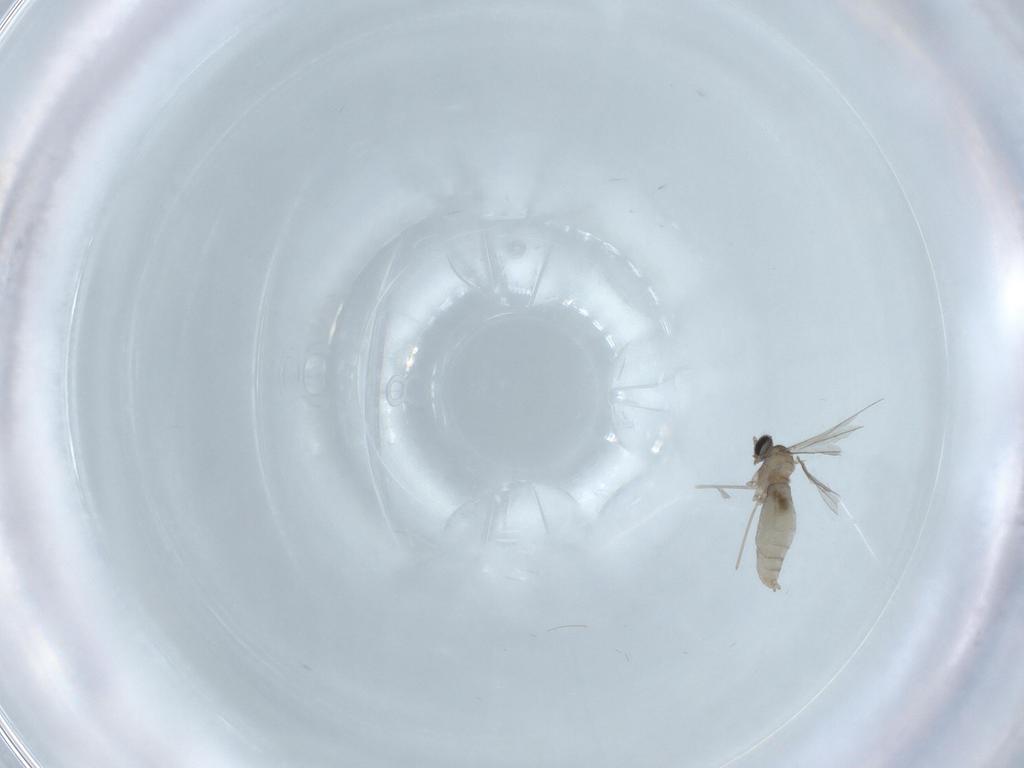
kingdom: Animalia
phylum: Arthropoda
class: Insecta
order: Diptera
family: Cecidomyiidae
